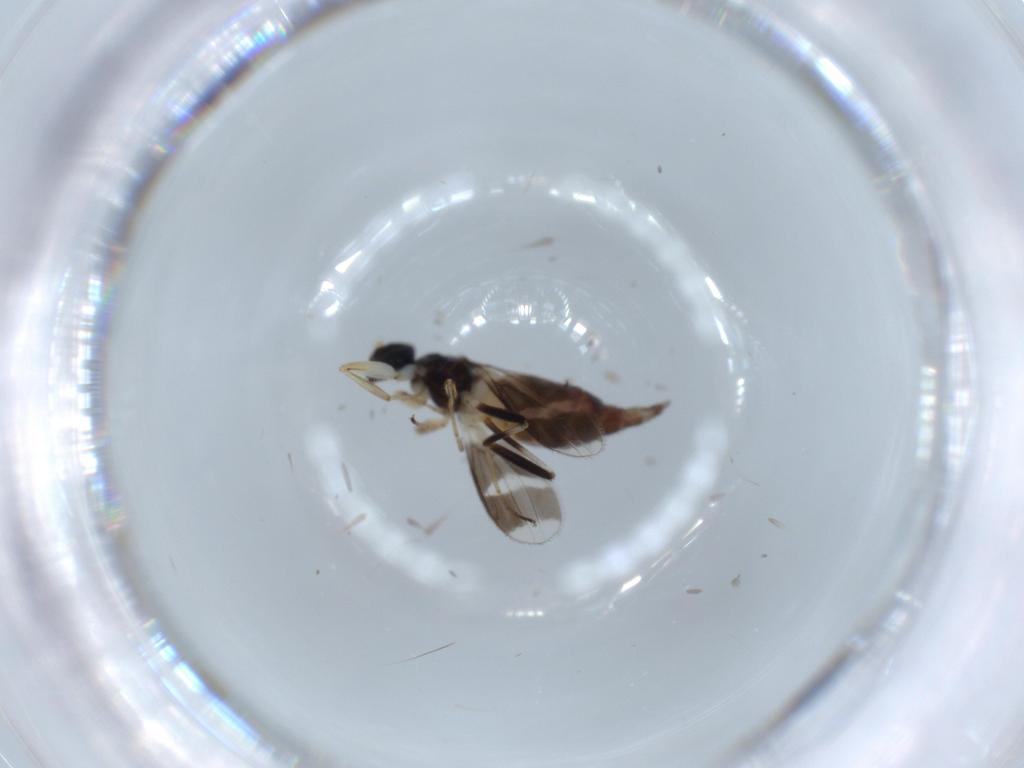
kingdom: Animalia
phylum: Arthropoda
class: Insecta
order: Diptera
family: Hybotidae
